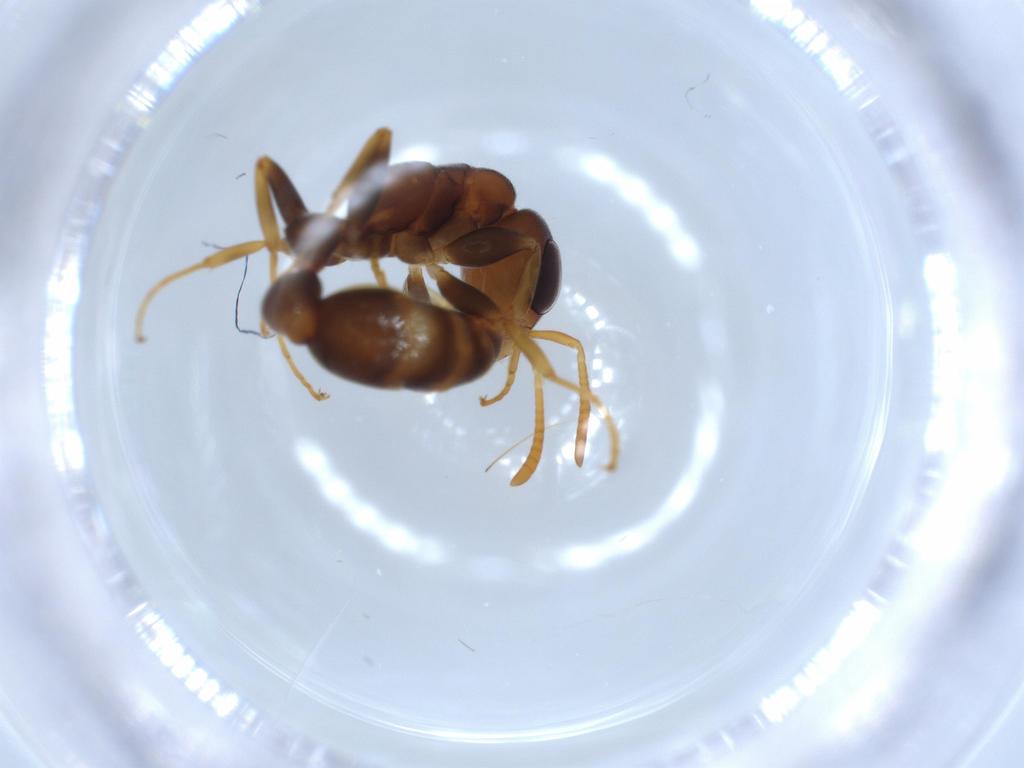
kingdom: Animalia
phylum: Arthropoda
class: Insecta
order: Hymenoptera
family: Formicidae
